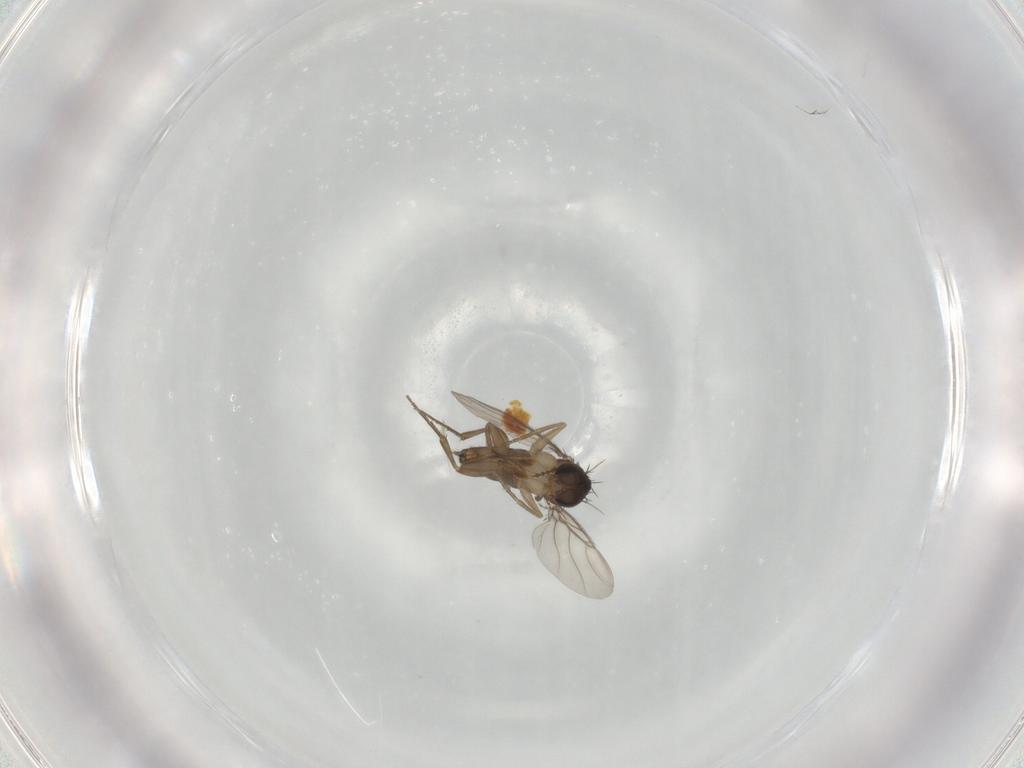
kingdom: Animalia
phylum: Arthropoda
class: Insecta
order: Diptera
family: Phoridae
